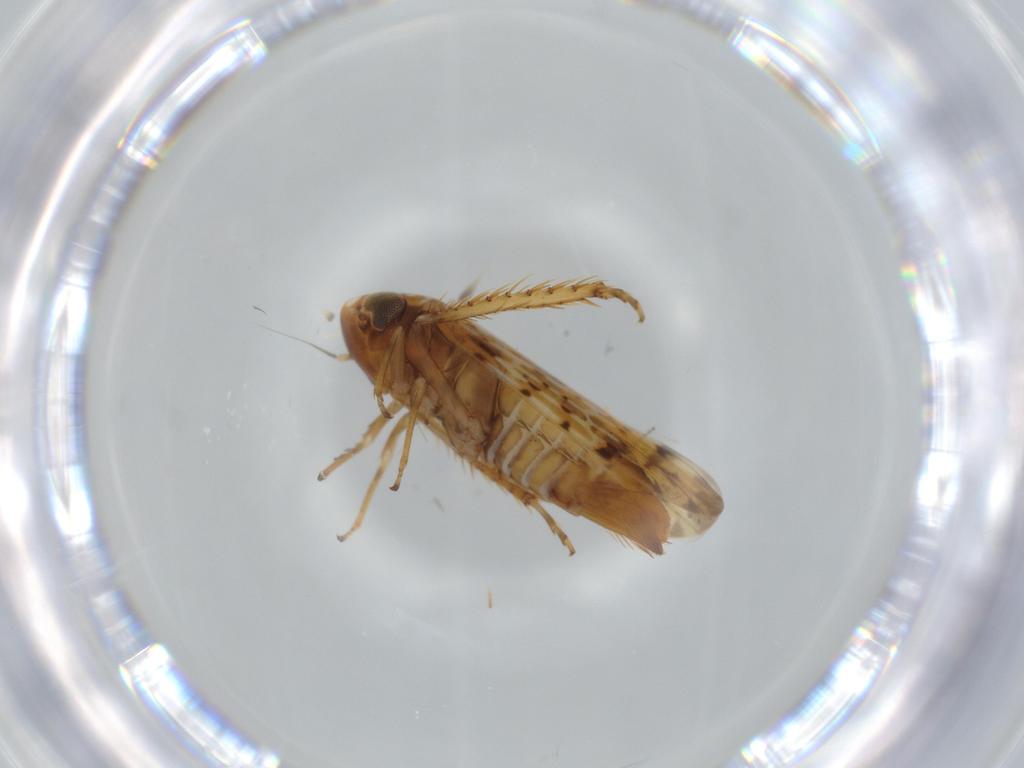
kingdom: Animalia
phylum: Arthropoda
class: Insecta
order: Hemiptera
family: Cicadellidae
